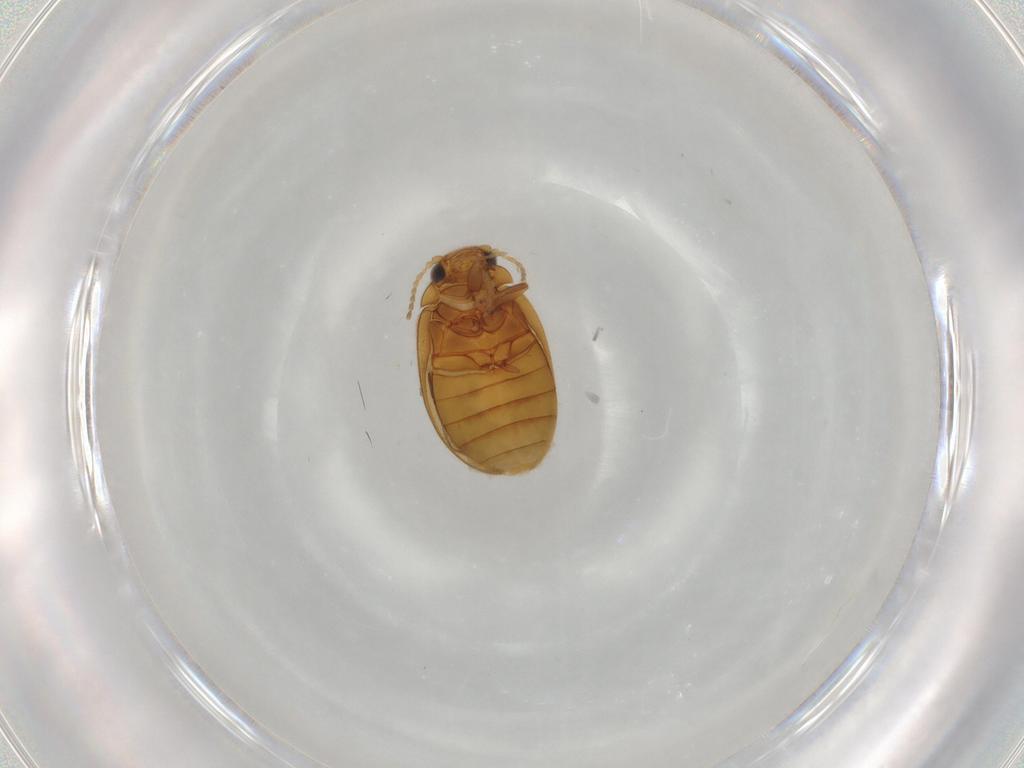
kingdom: Animalia
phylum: Arthropoda
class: Insecta
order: Coleoptera
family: Scirtidae
